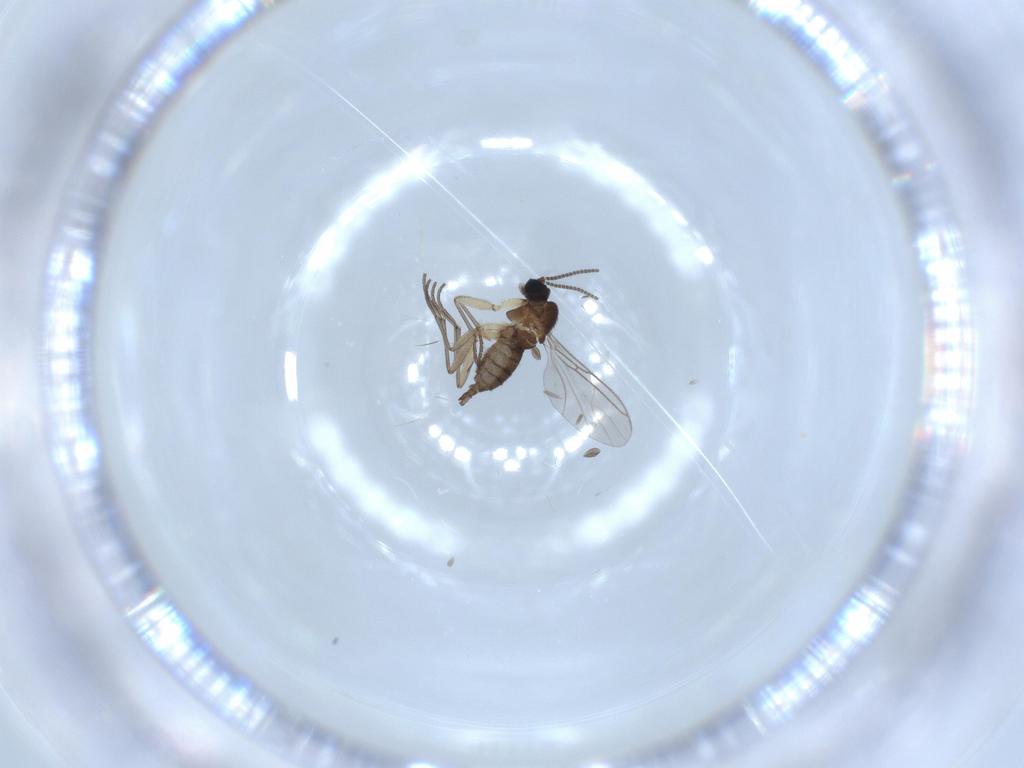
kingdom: Animalia
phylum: Arthropoda
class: Insecta
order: Diptera
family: Sciaridae
